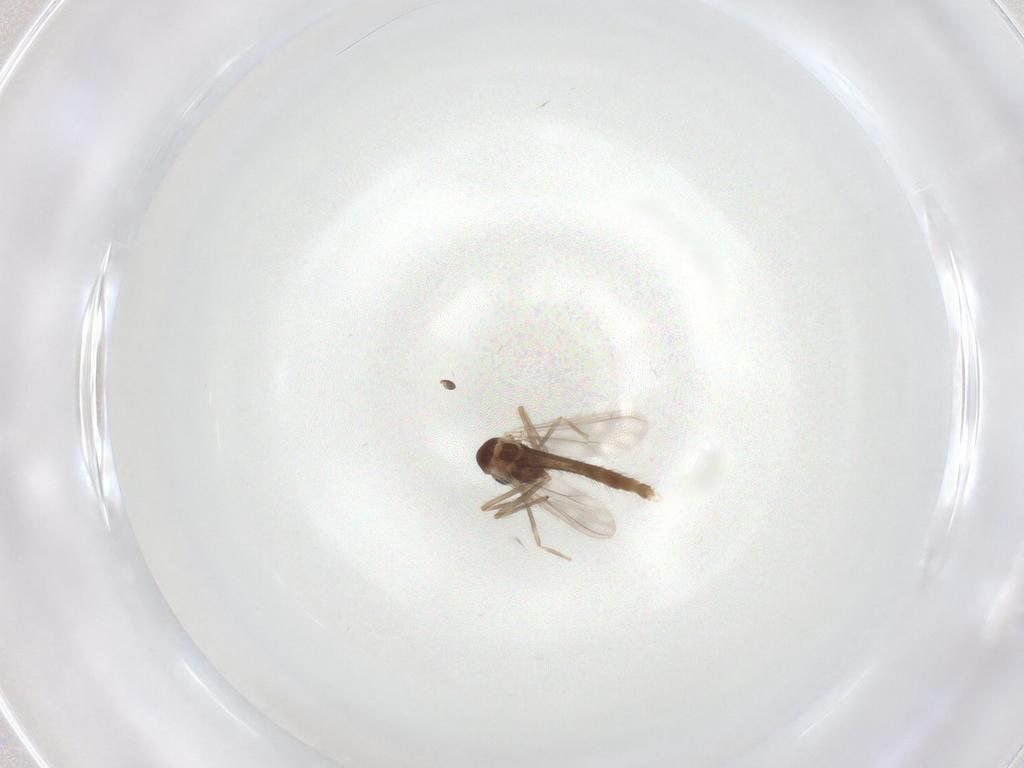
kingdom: Animalia
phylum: Arthropoda
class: Insecta
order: Diptera
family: Chironomidae
